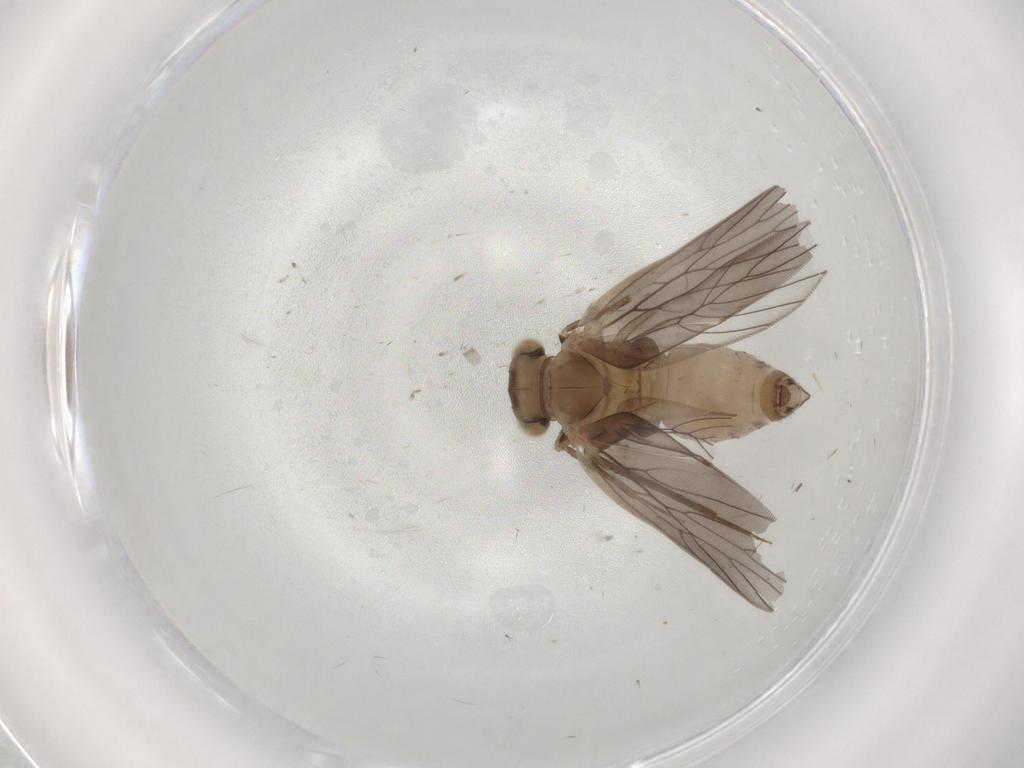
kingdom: Animalia
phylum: Arthropoda
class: Insecta
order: Psocodea
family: Lepidopsocidae
